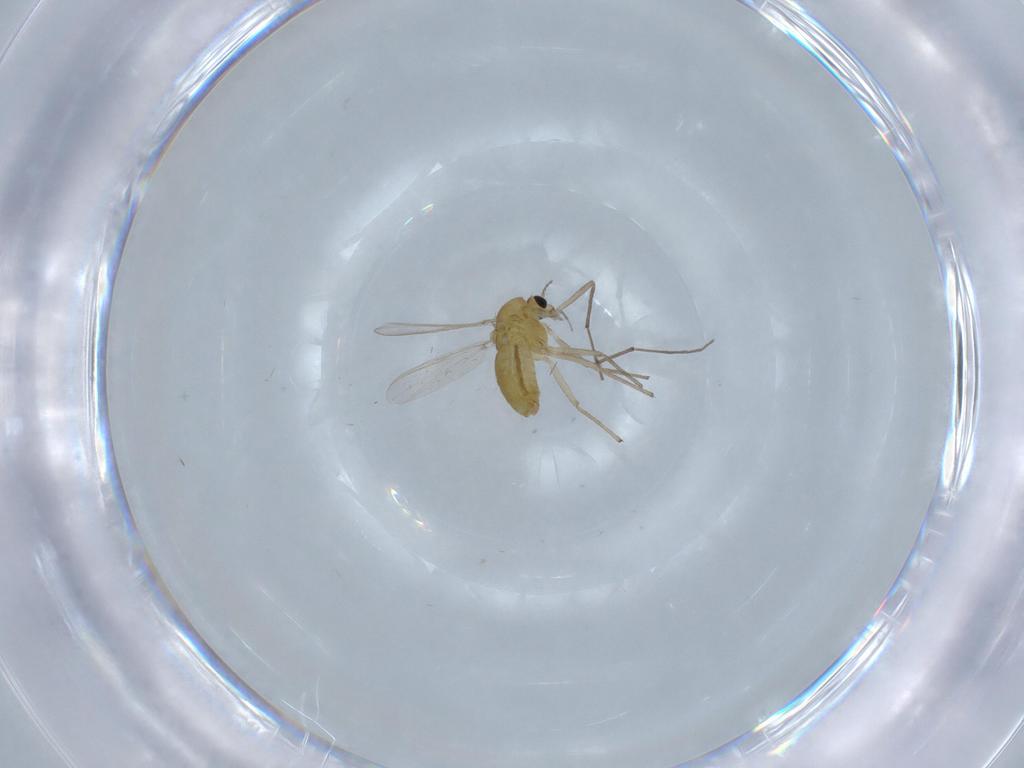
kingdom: Animalia
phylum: Arthropoda
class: Insecta
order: Diptera
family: Chironomidae
